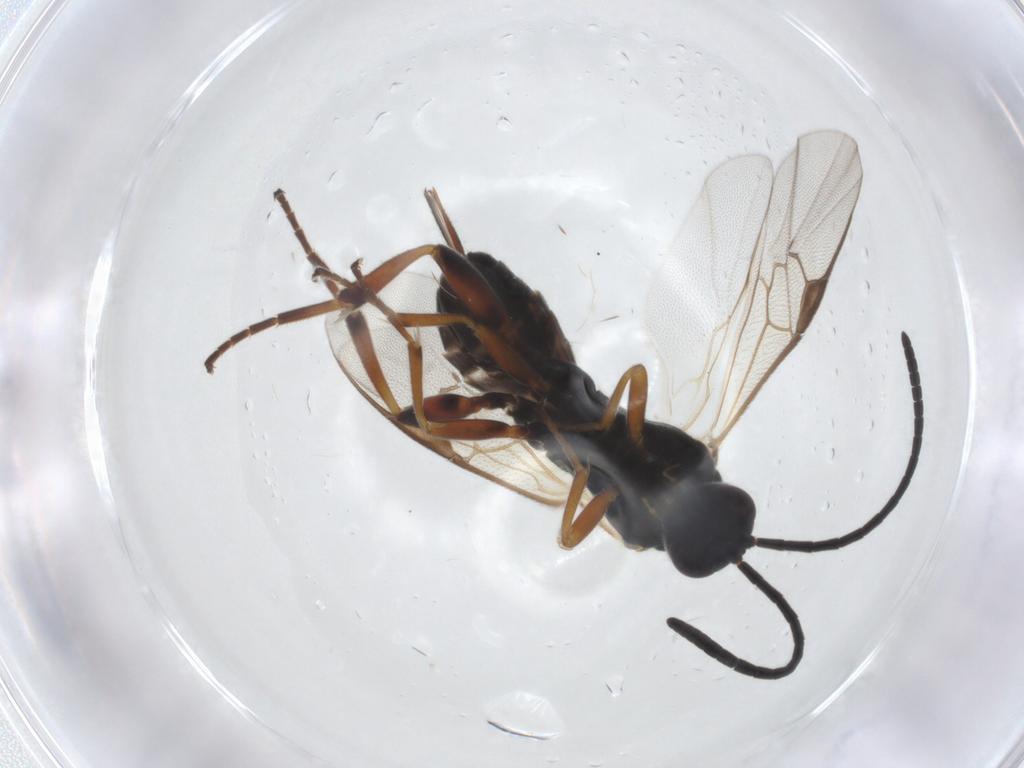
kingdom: Animalia
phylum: Arthropoda
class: Insecta
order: Hymenoptera
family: Braconidae
